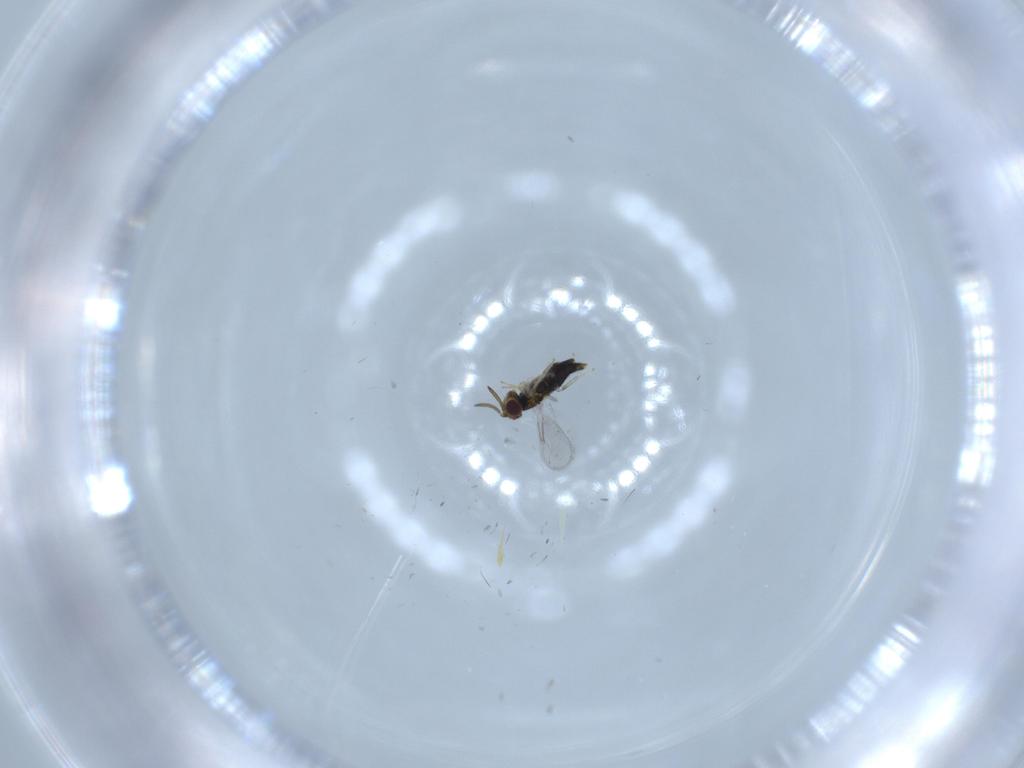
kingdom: Animalia
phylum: Arthropoda
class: Insecta
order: Hymenoptera
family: Aphelinidae
